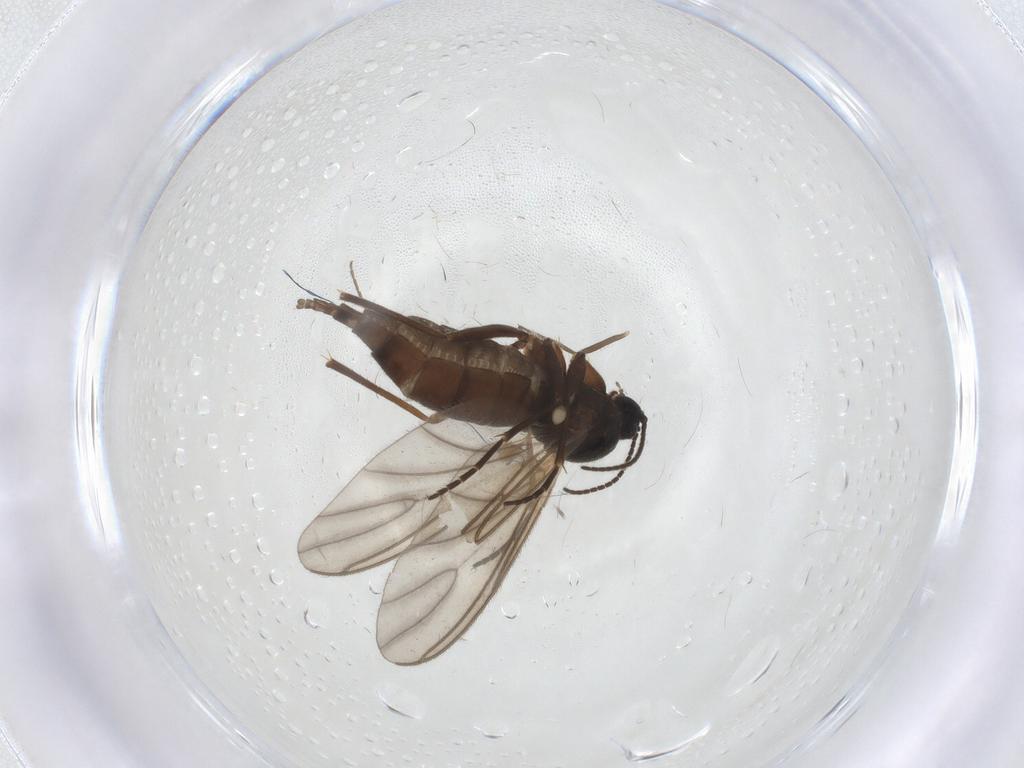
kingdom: Animalia
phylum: Arthropoda
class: Insecta
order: Diptera
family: Sciaridae
